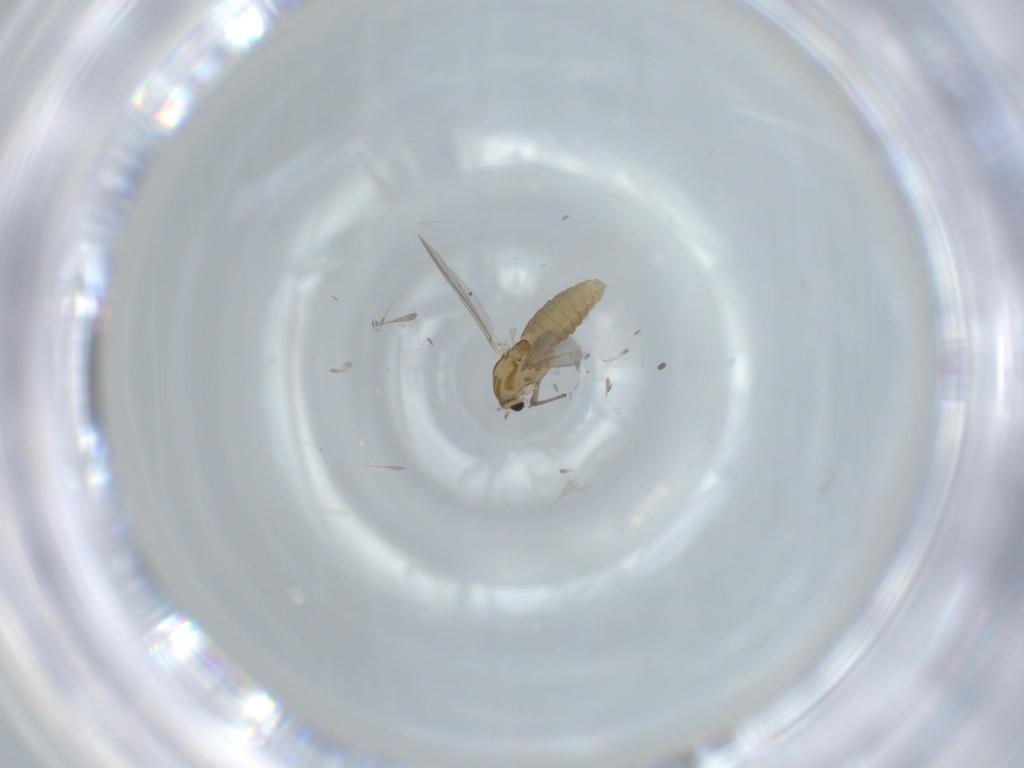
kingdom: Animalia
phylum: Arthropoda
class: Insecta
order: Diptera
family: Chironomidae
